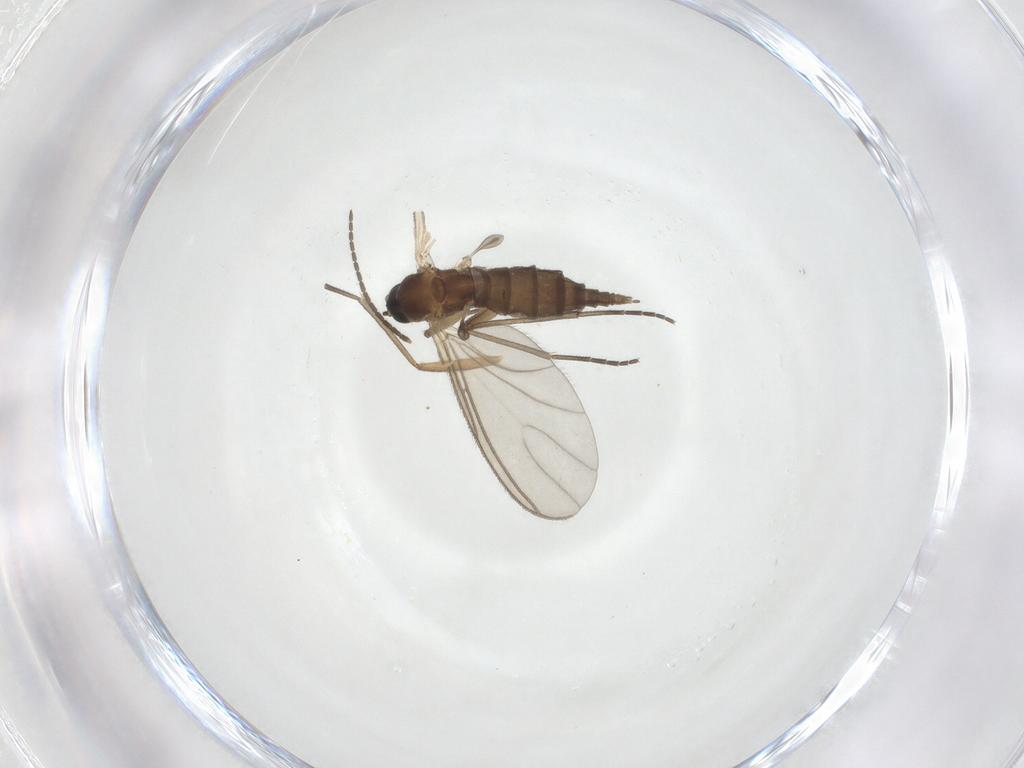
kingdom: Animalia
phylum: Arthropoda
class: Insecta
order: Diptera
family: Sciaridae
